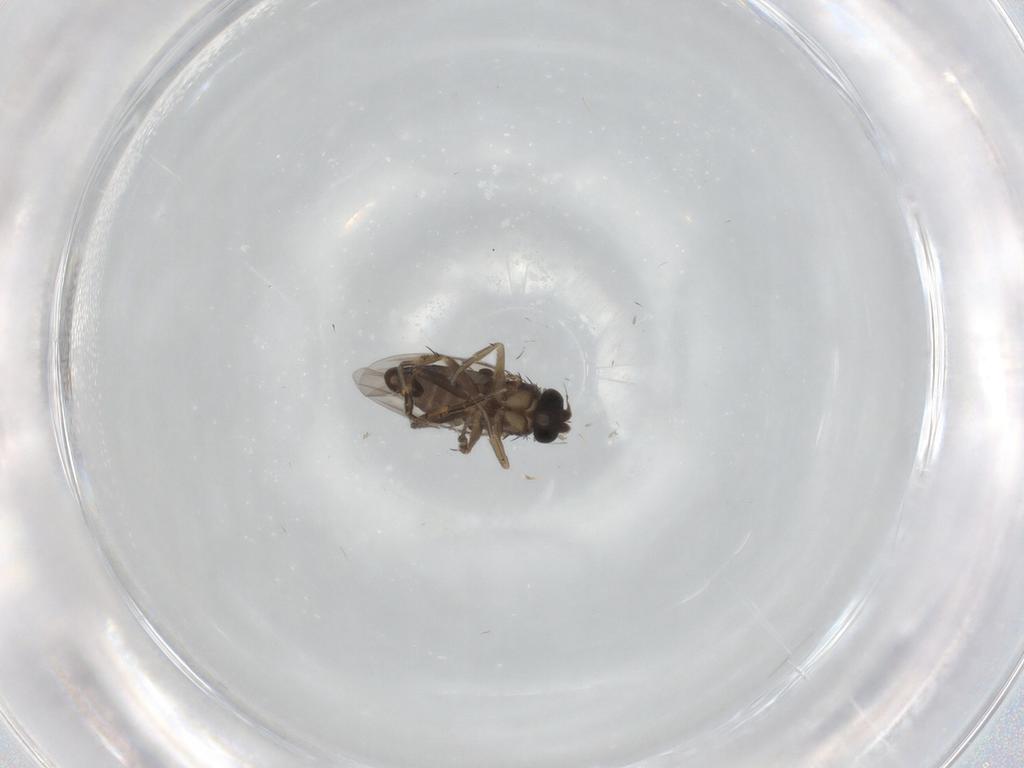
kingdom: Animalia
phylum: Arthropoda
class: Insecta
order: Diptera
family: Phoridae
